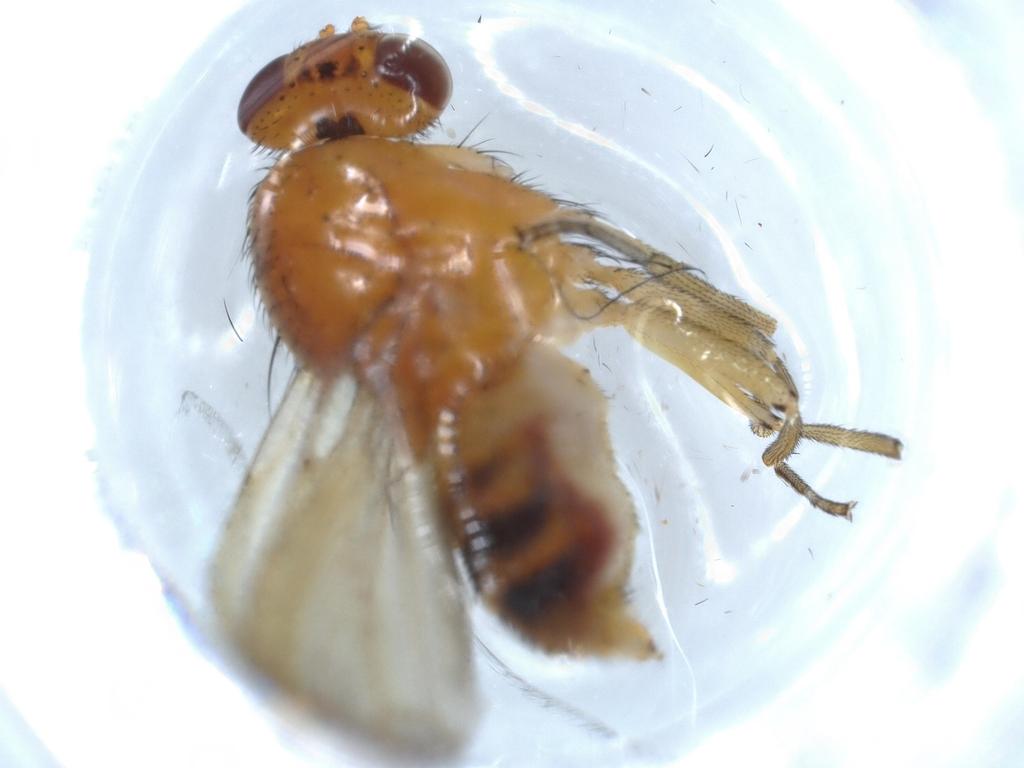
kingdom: Animalia
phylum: Arthropoda
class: Insecta
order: Diptera
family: Sciaridae
